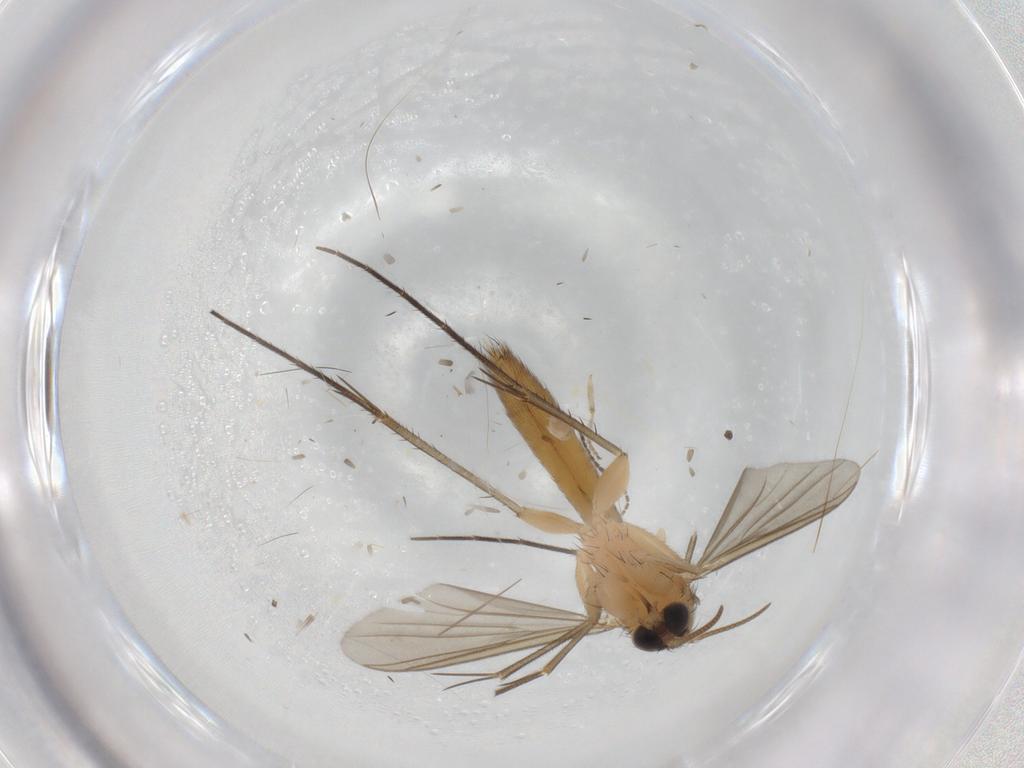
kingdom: Animalia
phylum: Arthropoda
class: Insecta
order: Diptera
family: Mycetophilidae
